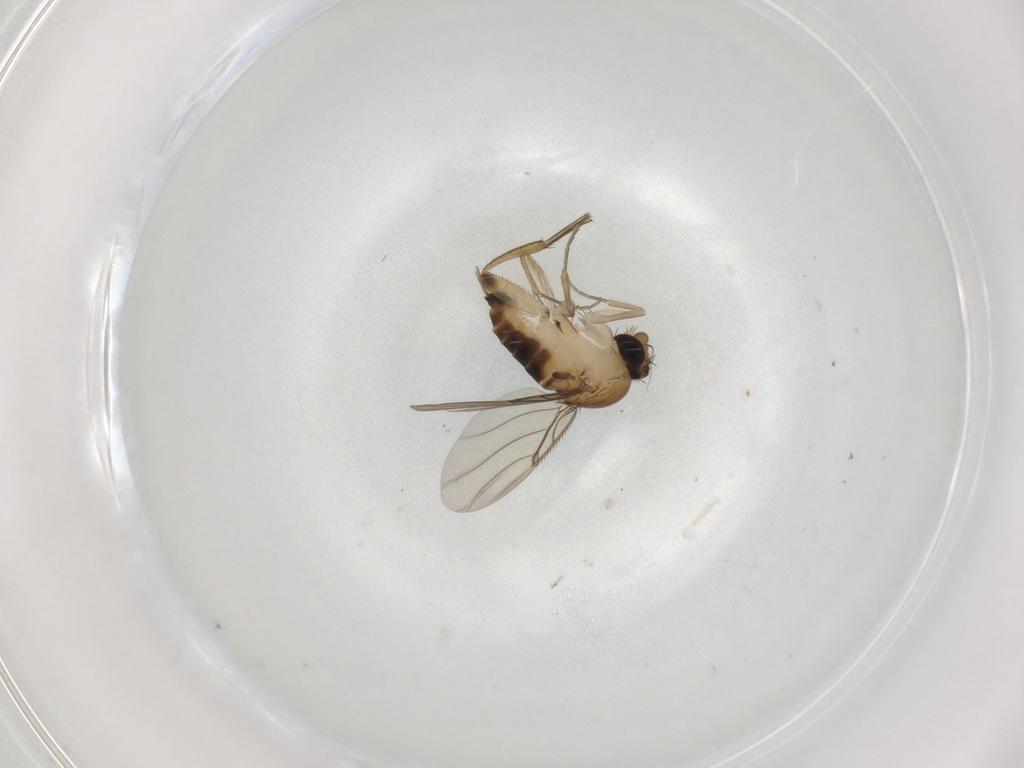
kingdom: Animalia
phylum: Arthropoda
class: Insecta
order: Diptera
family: Phoridae
